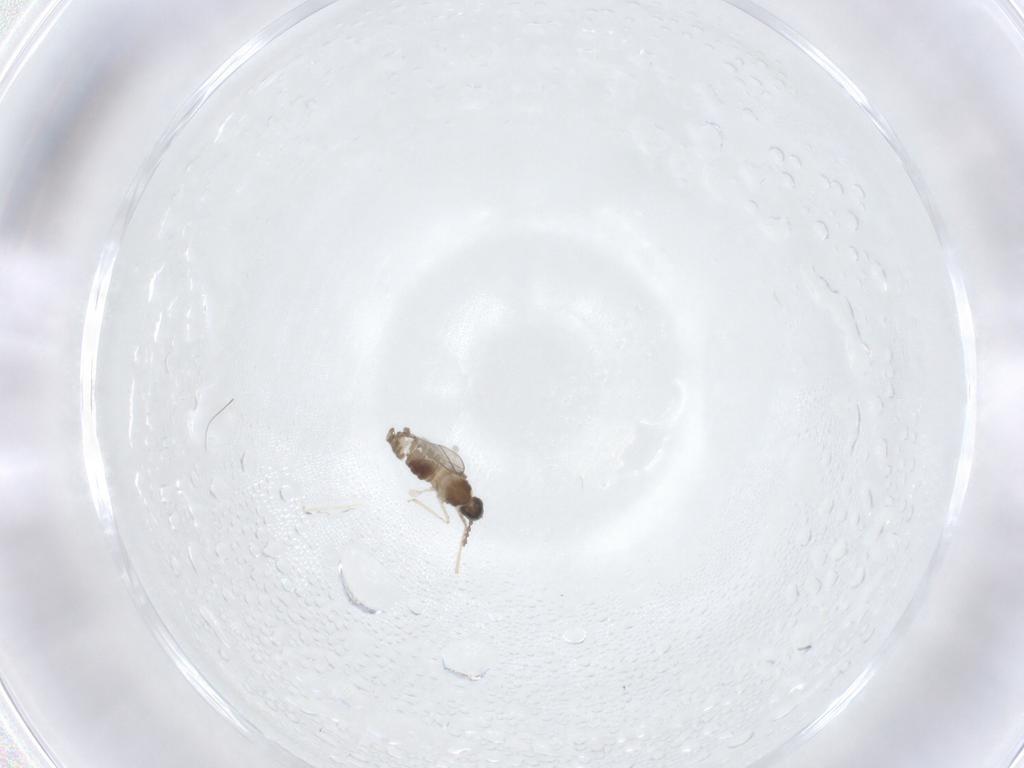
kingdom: Animalia
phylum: Arthropoda
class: Insecta
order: Diptera
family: Cecidomyiidae
